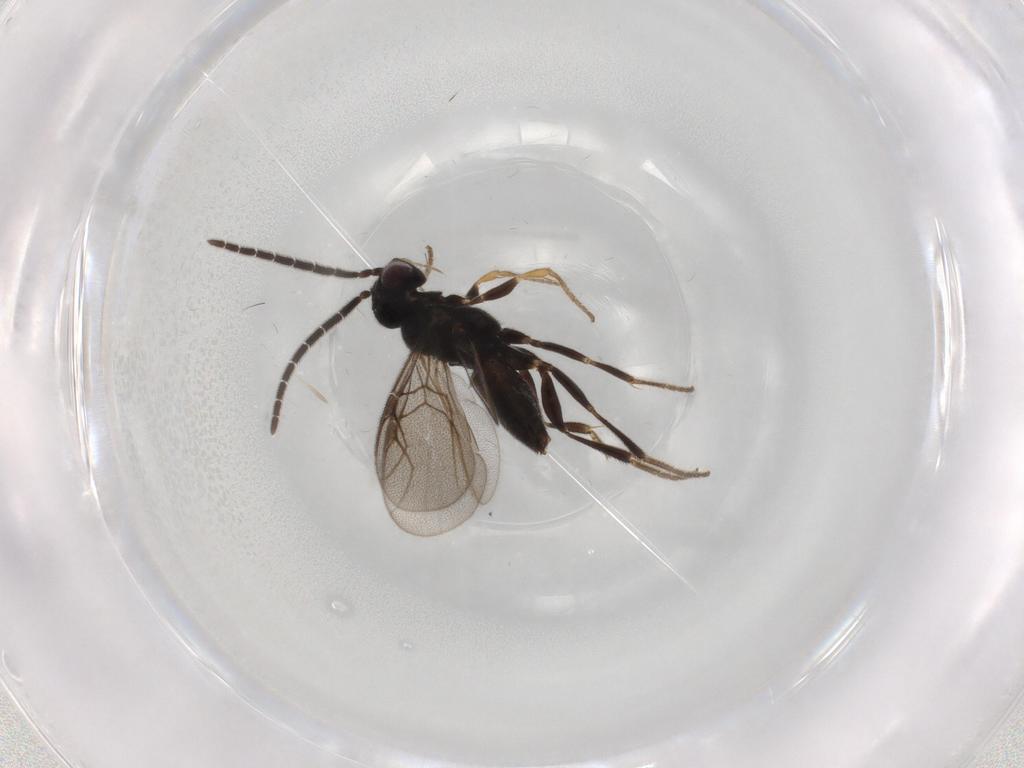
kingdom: Animalia
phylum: Arthropoda
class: Insecta
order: Hymenoptera
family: Dryinidae
